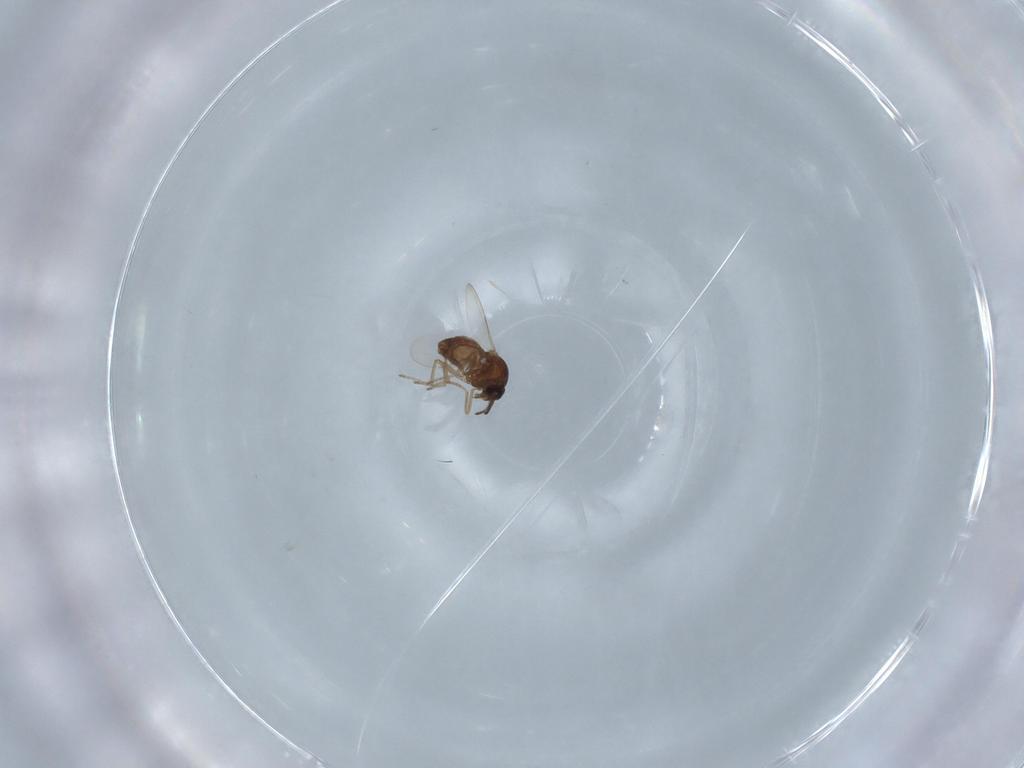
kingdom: Animalia
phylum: Arthropoda
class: Insecta
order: Diptera
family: Ceratopogonidae
